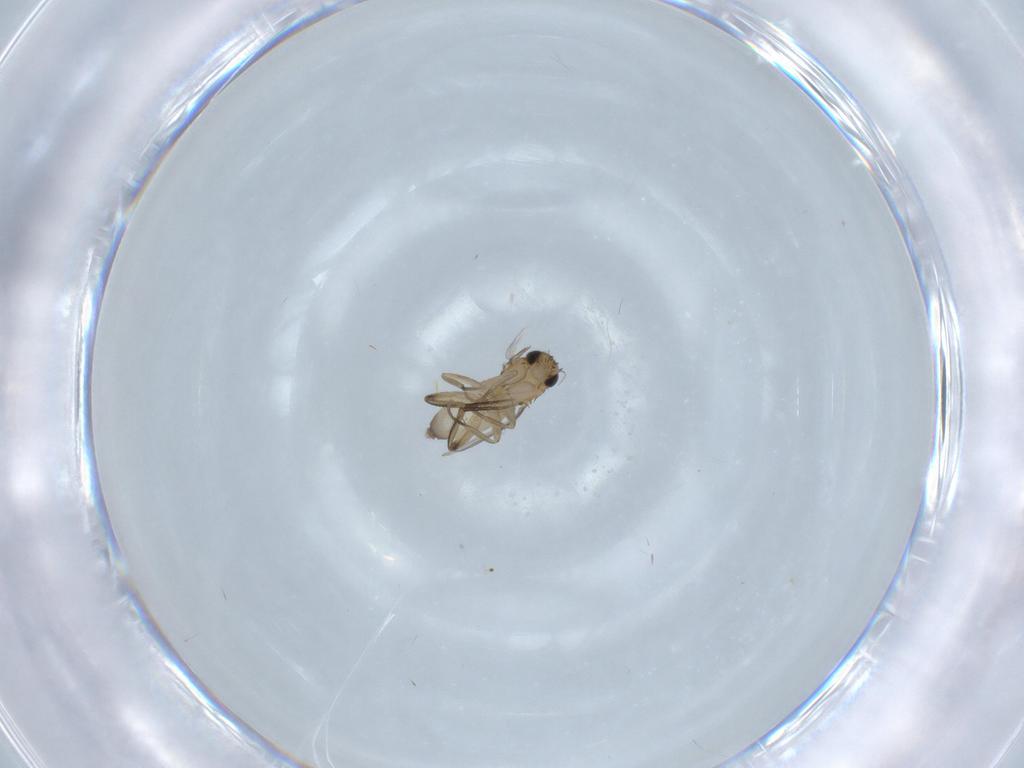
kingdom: Animalia
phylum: Arthropoda
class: Insecta
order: Diptera
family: Phoridae
